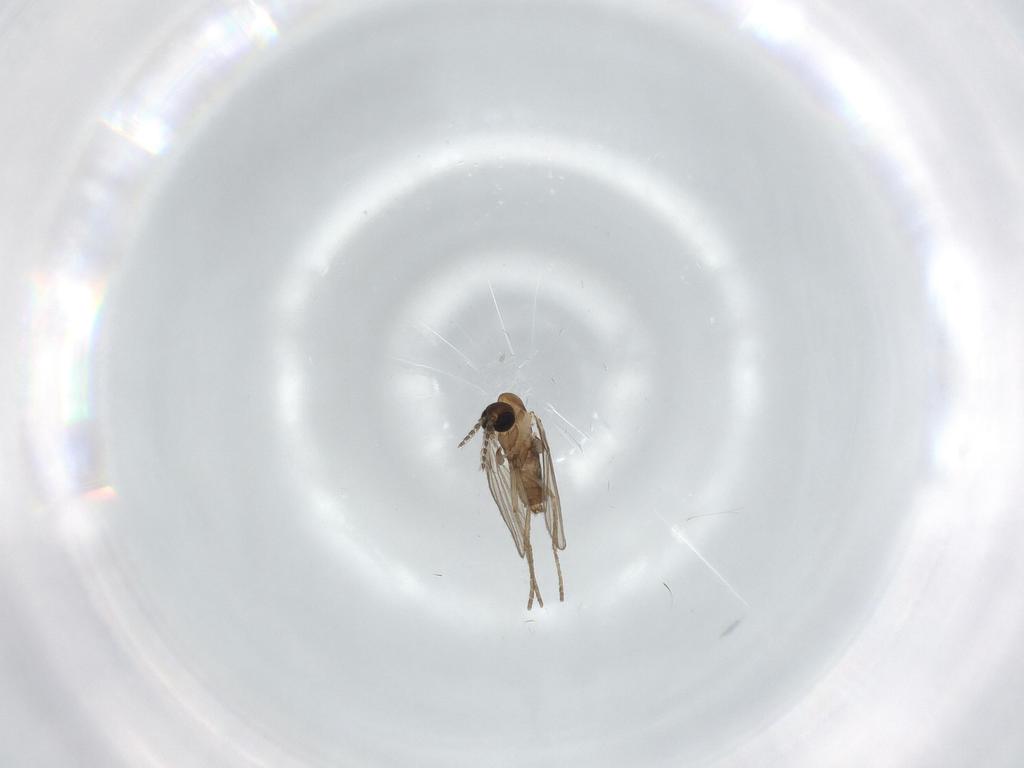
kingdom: Animalia
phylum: Arthropoda
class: Insecta
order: Diptera
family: Psychodidae
